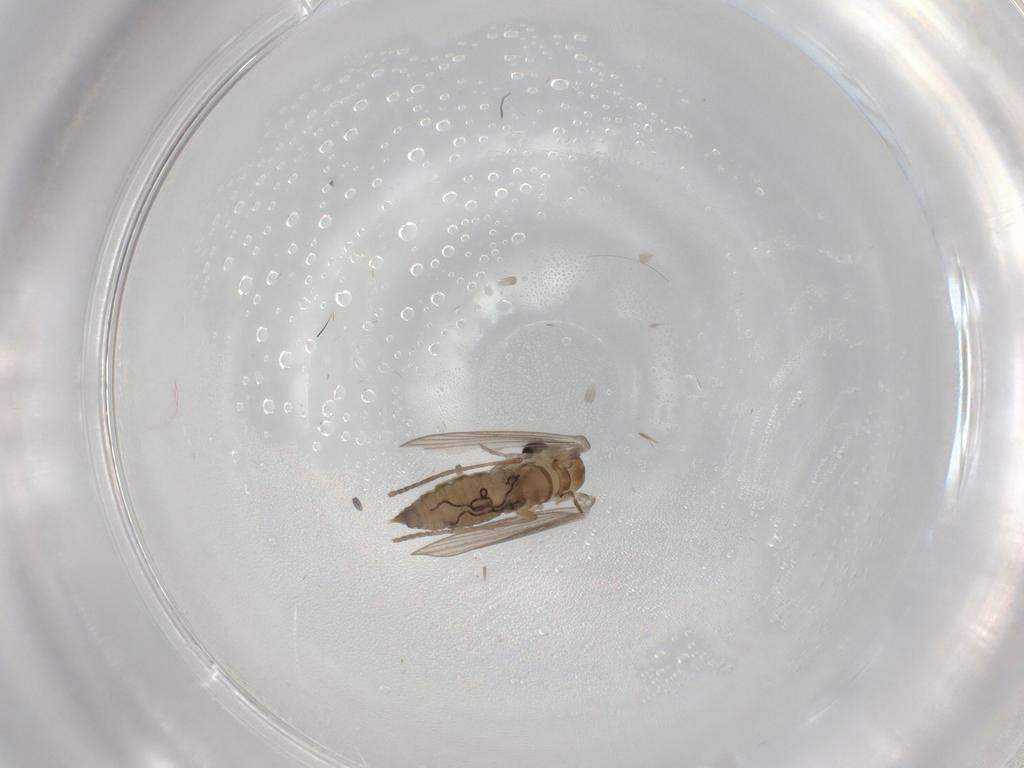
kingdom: Animalia
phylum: Arthropoda
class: Insecta
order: Diptera
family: Psychodidae
